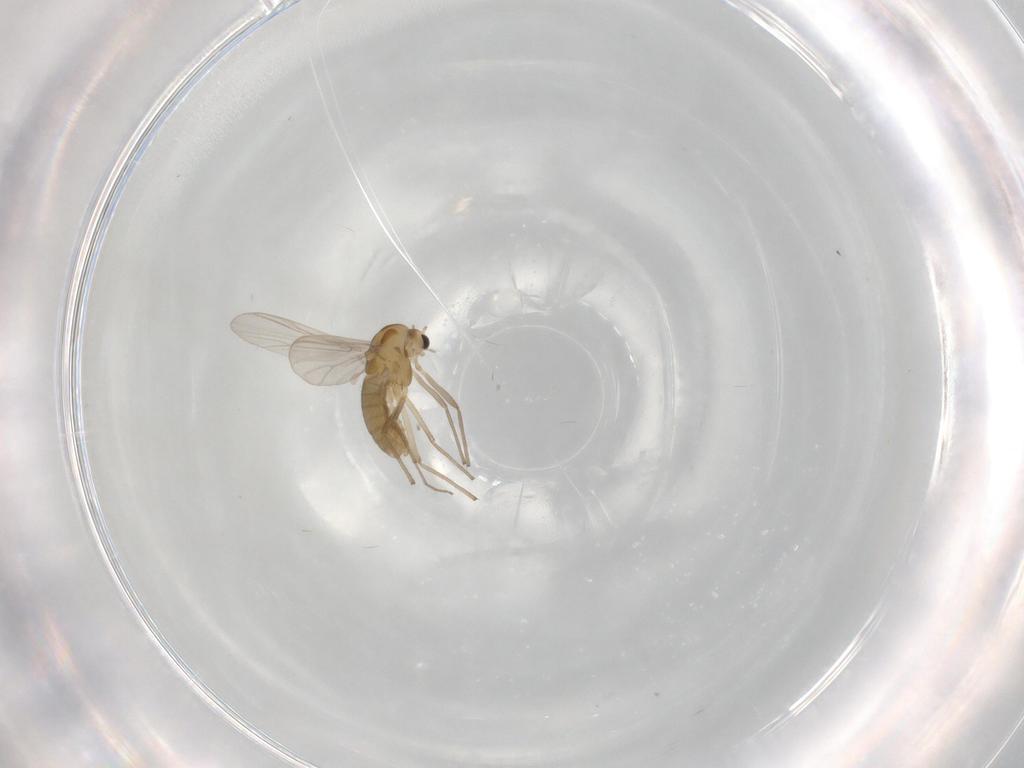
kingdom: Animalia
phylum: Arthropoda
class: Insecta
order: Diptera
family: Chironomidae
